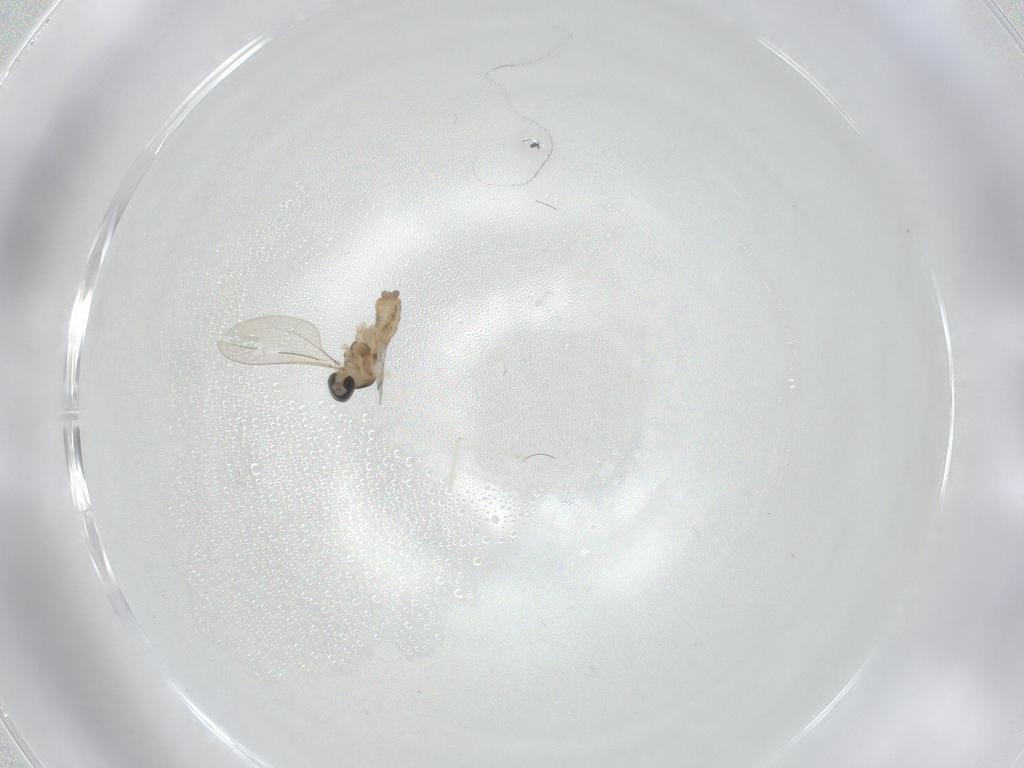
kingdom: Animalia
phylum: Arthropoda
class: Insecta
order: Diptera
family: Cecidomyiidae
